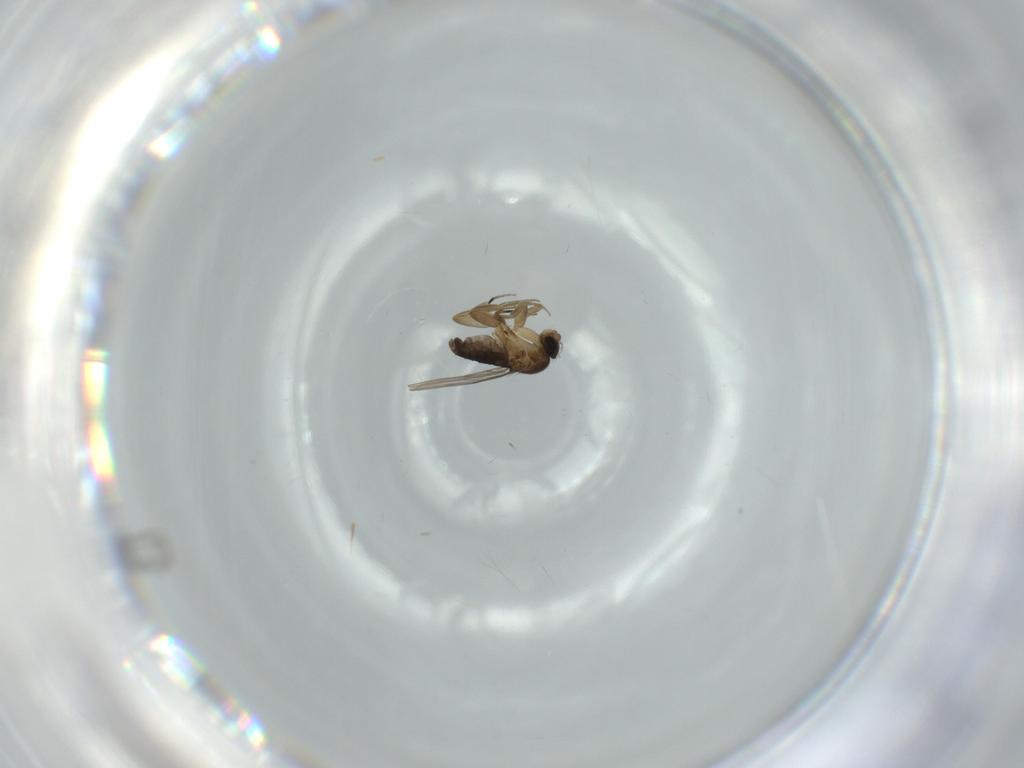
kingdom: Animalia
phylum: Arthropoda
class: Insecta
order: Diptera
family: Phoridae
